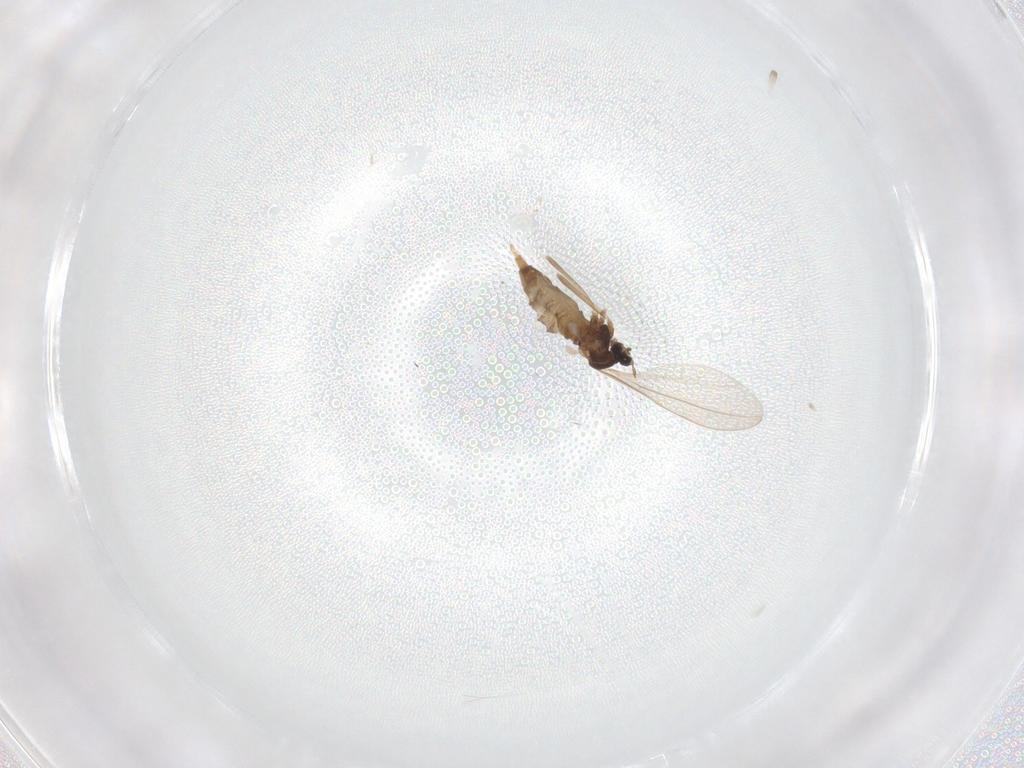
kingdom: Animalia
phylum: Arthropoda
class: Insecta
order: Diptera
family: Cecidomyiidae
